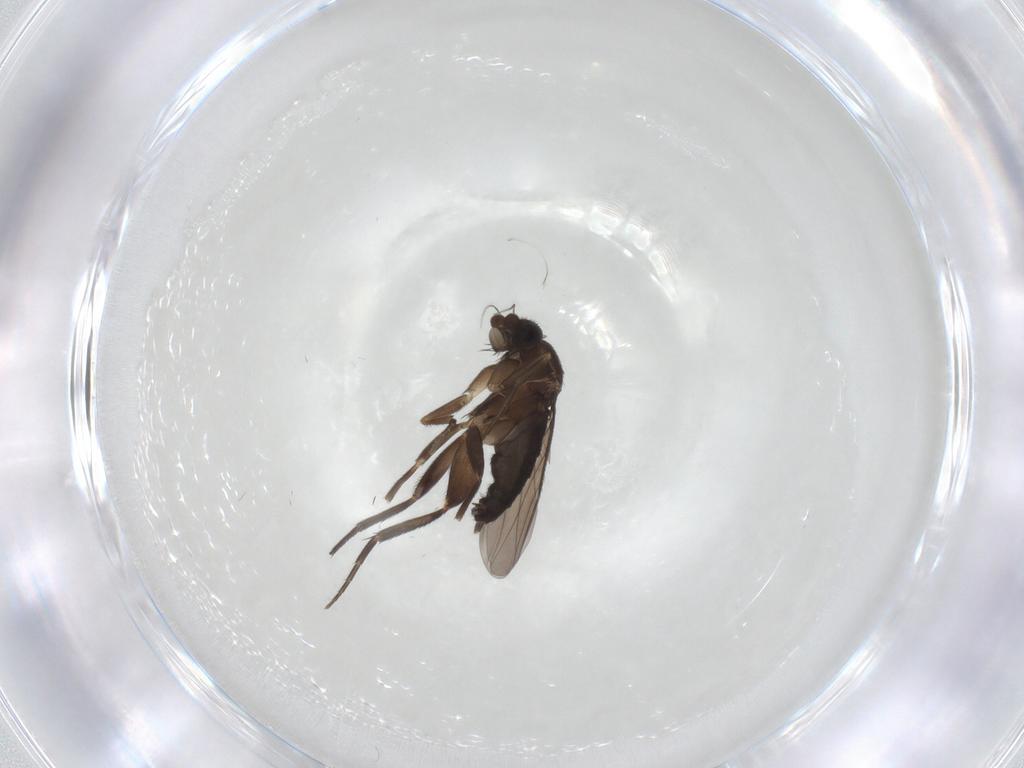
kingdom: Animalia
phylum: Arthropoda
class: Insecta
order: Diptera
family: Phoridae
